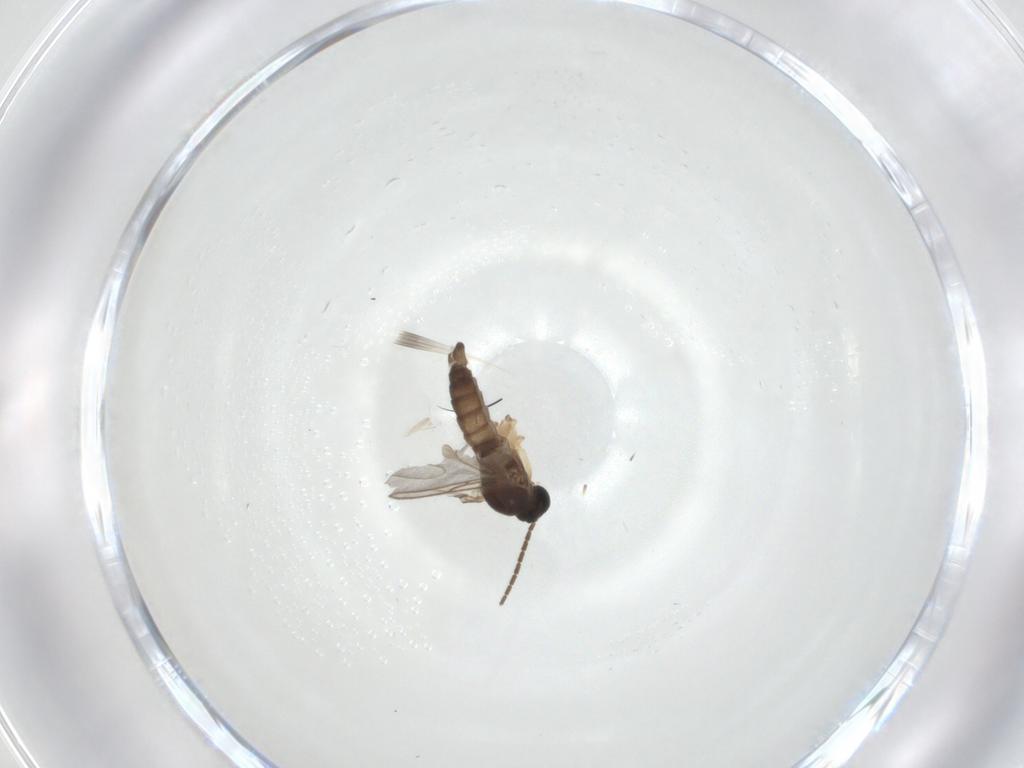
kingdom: Animalia
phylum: Arthropoda
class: Insecta
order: Diptera
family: Sciaridae
